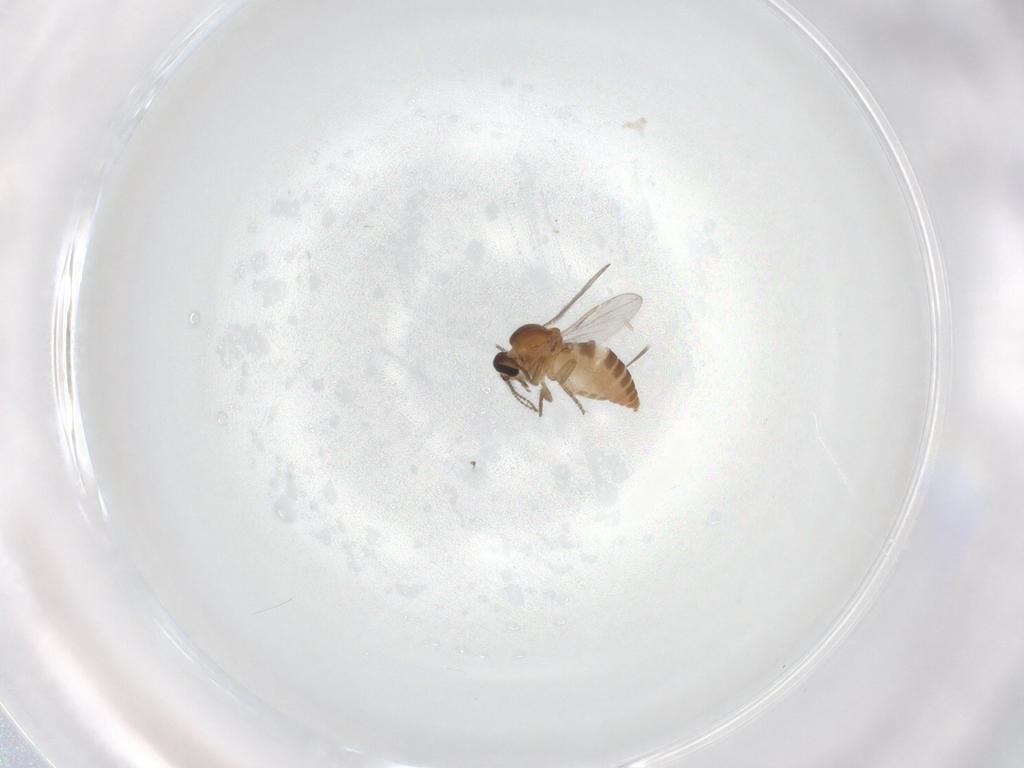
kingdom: Animalia
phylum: Arthropoda
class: Insecta
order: Diptera
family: Ceratopogonidae
